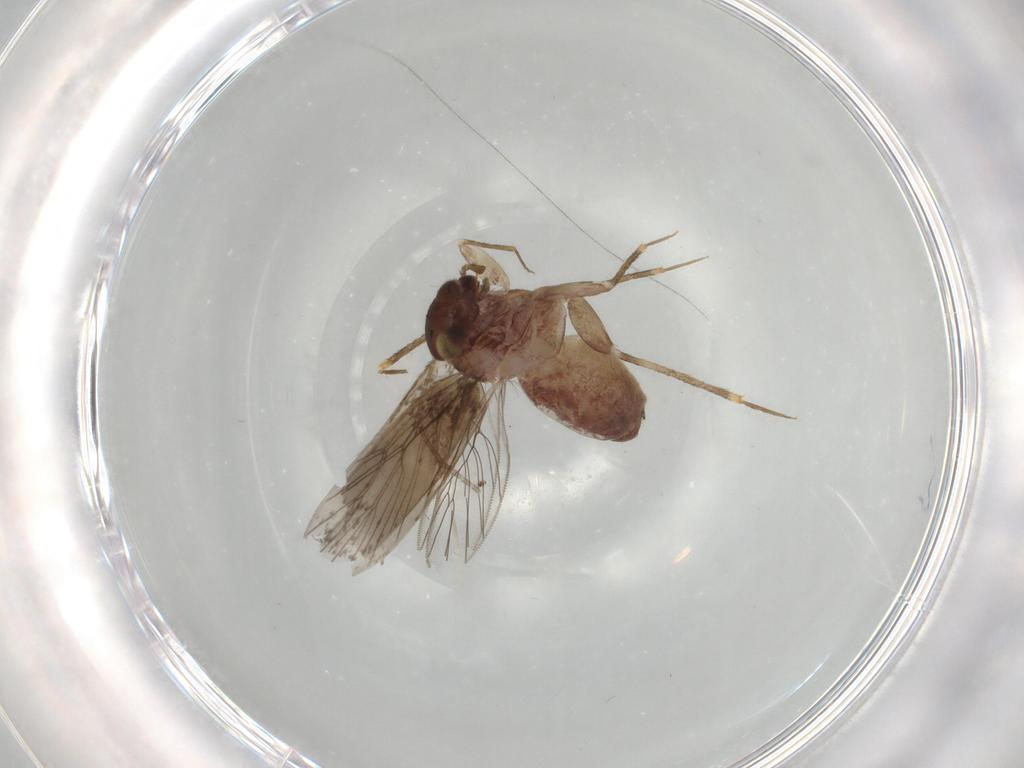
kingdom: Animalia
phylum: Arthropoda
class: Insecta
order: Psocodea
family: Lepidopsocidae
